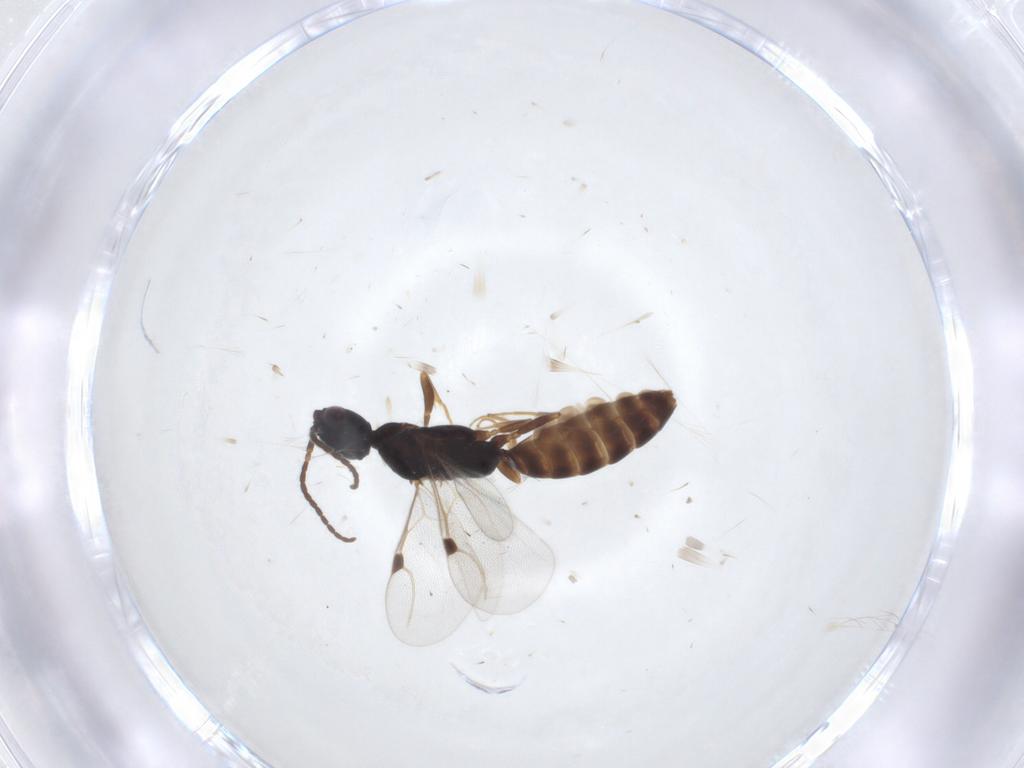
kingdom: Animalia
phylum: Arthropoda
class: Insecta
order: Hymenoptera
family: Bethylidae
